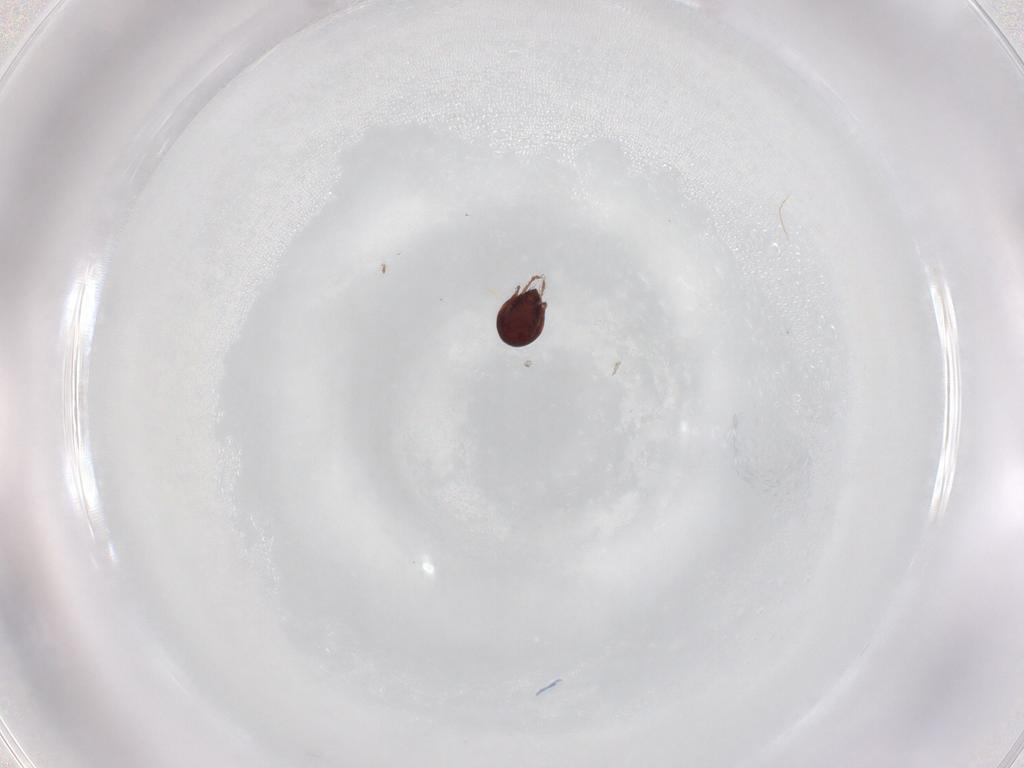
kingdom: Animalia
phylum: Arthropoda
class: Arachnida
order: Sarcoptiformes
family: Ceratozetidae
